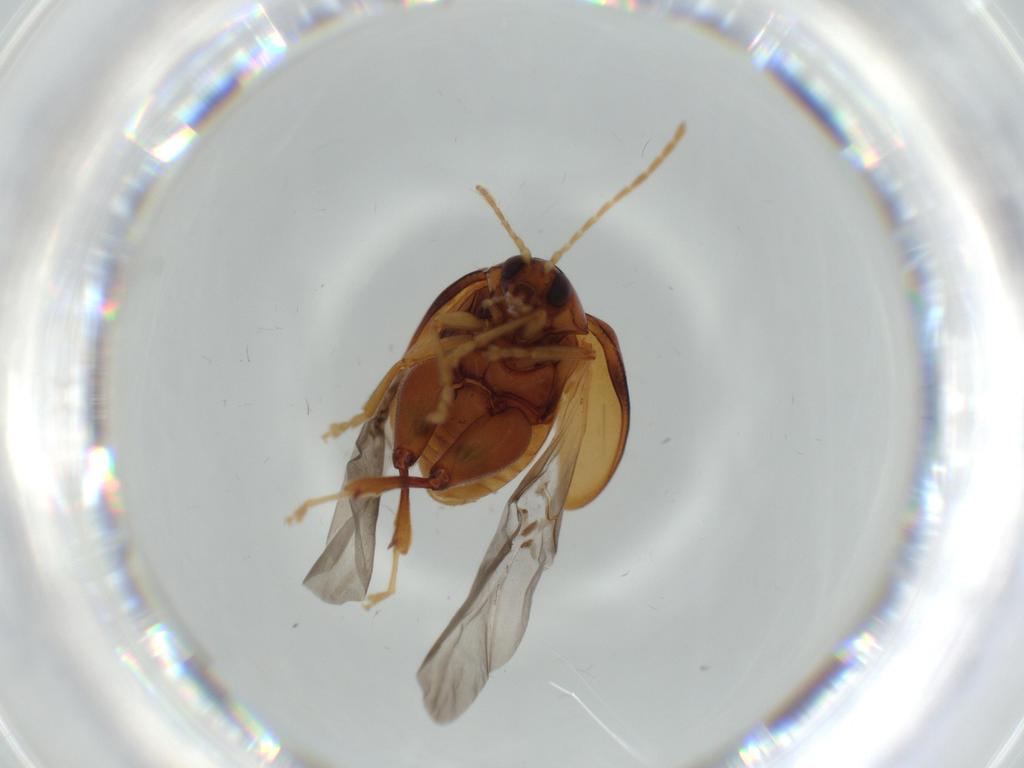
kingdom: Animalia
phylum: Arthropoda
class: Insecta
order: Coleoptera
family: Chrysomelidae
